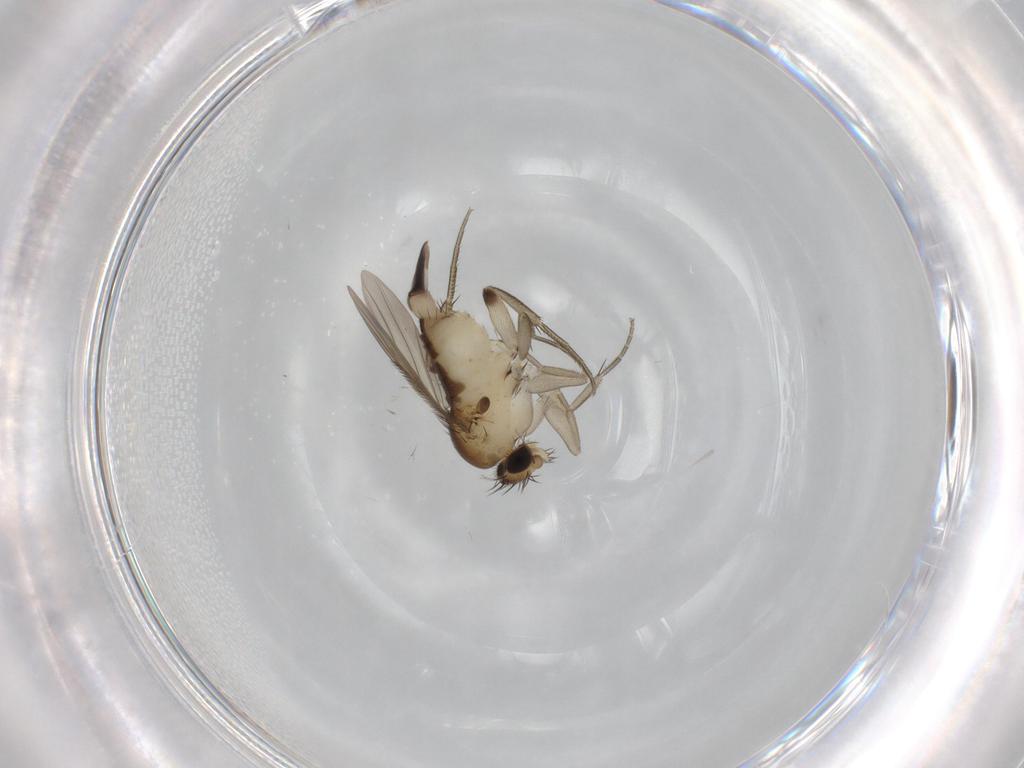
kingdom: Animalia
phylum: Arthropoda
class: Insecta
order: Diptera
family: Phoridae
